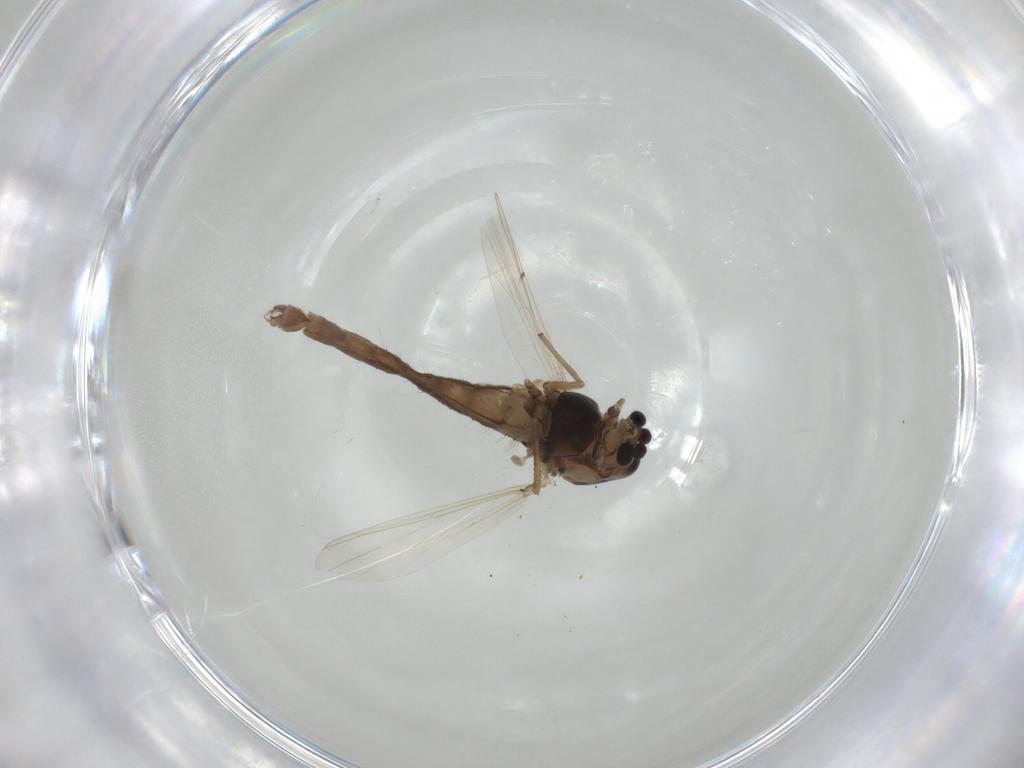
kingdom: Animalia
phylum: Arthropoda
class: Insecta
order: Diptera
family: Chironomidae
